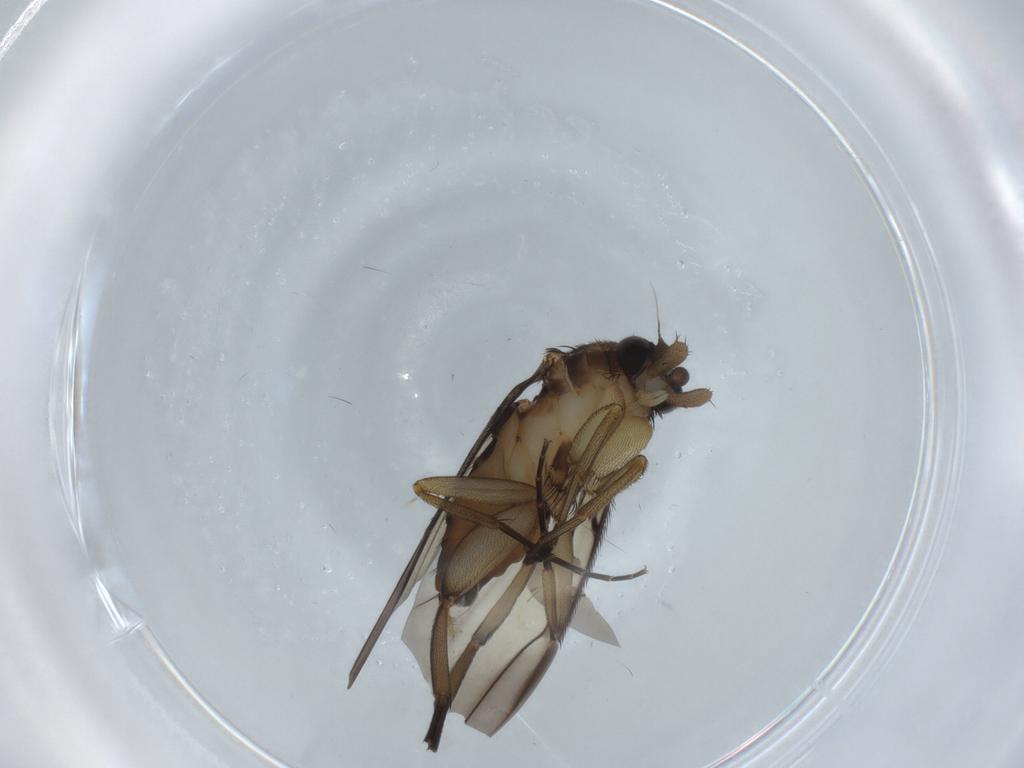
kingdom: Animalia
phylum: Arthropoda
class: Insecta
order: Diptera
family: Phoridae
